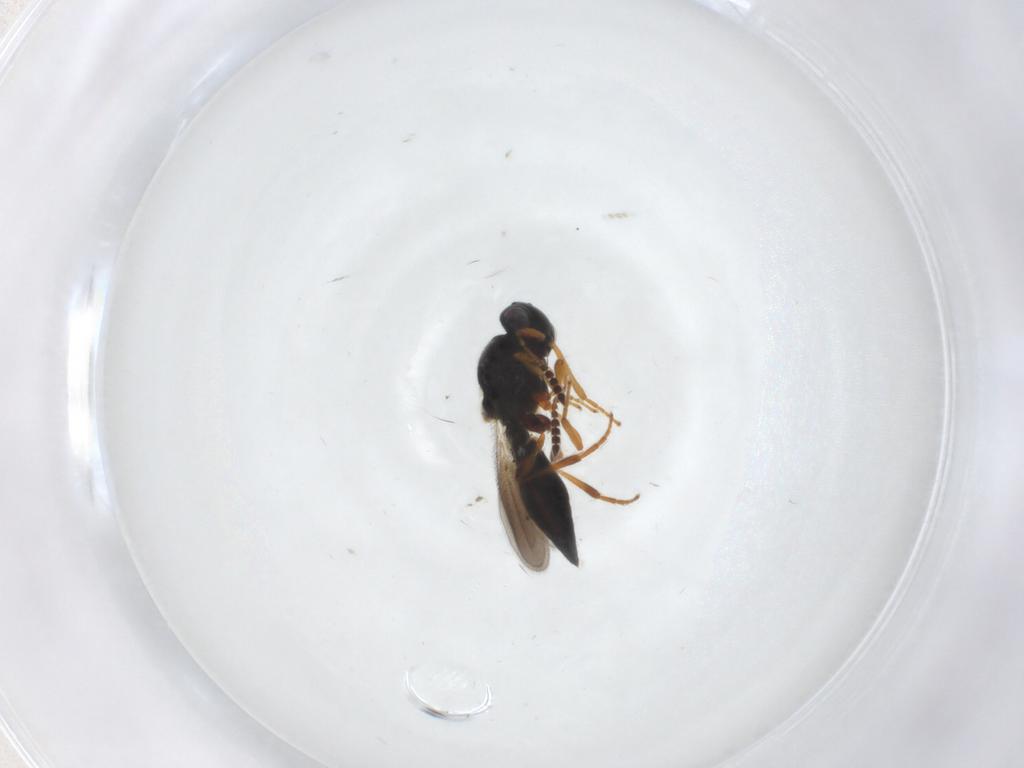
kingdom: Animalia
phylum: Arthropoda
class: Insecta
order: Hymenoptera
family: Platygastridae
